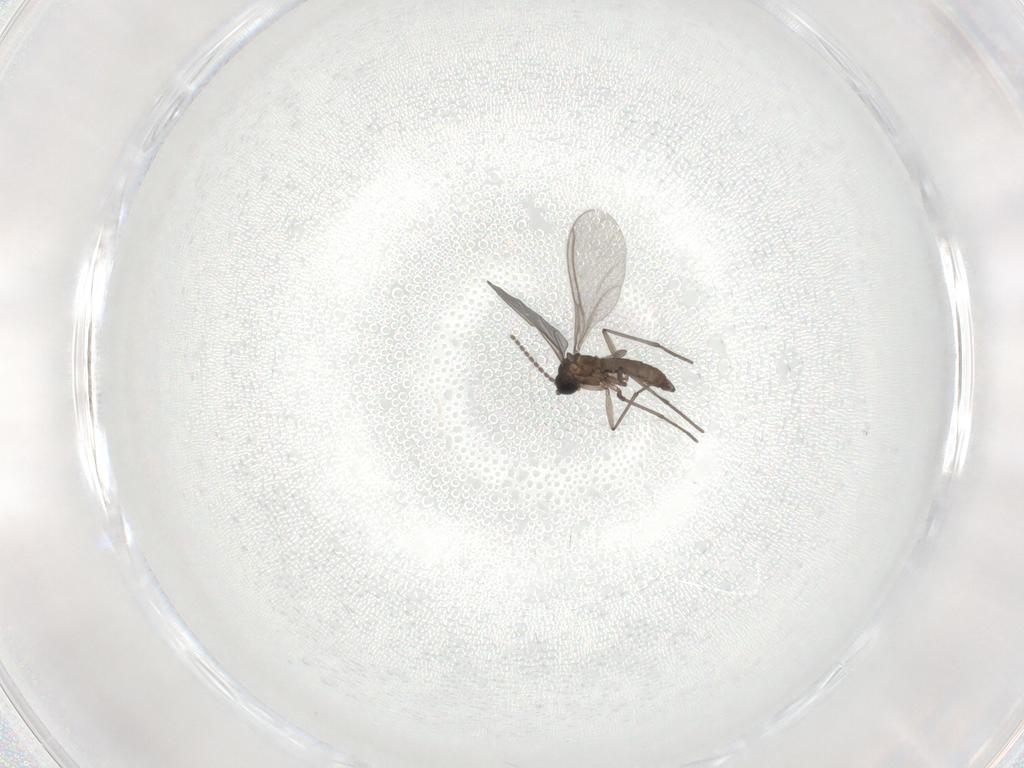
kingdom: Animalia
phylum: Arthropoda
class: Insecta
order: Diptera
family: Sciaridae
